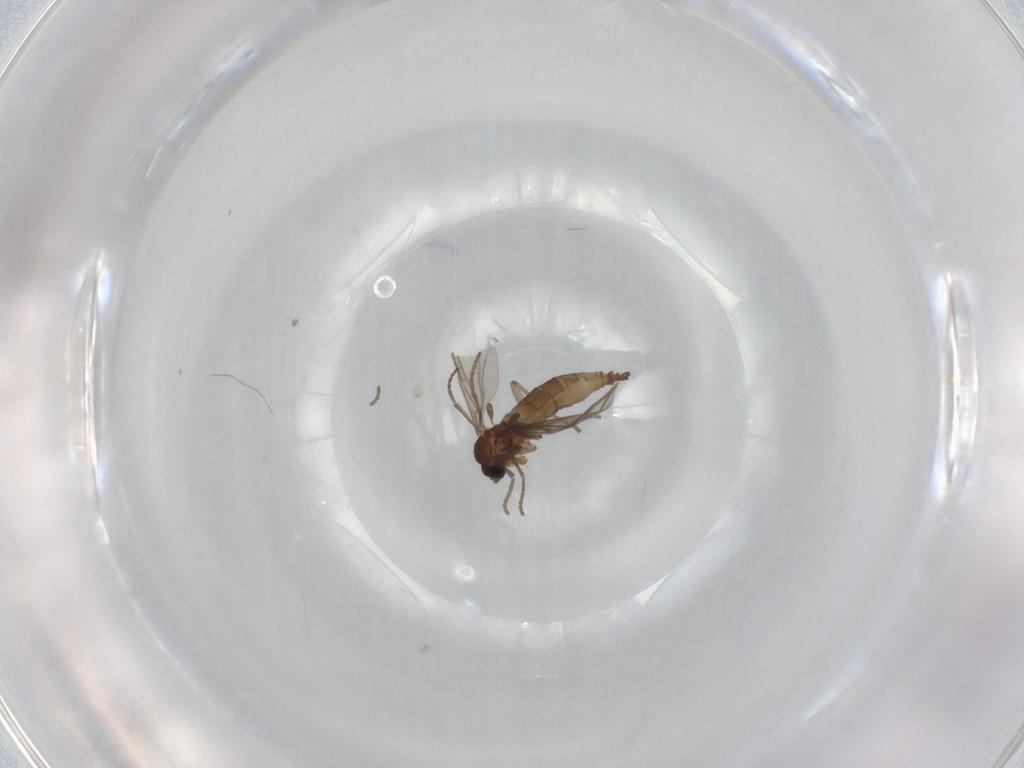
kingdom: Animalia
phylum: Arthropoda
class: Insecta
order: Diptera
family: Sciaridae
